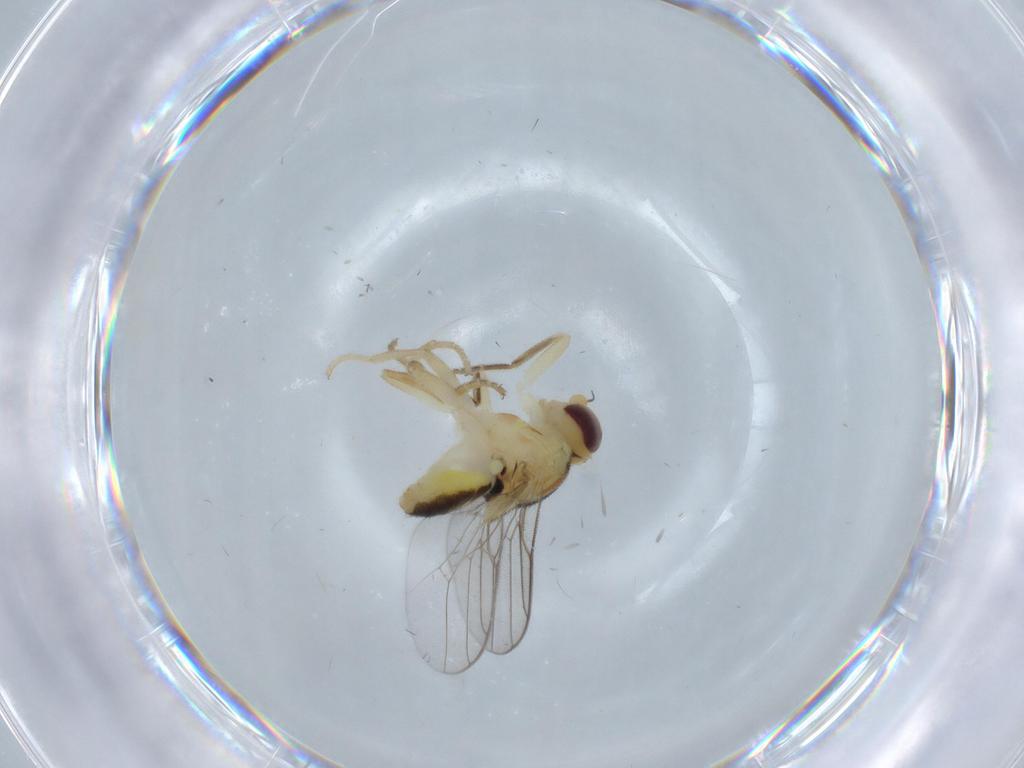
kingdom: Animalia
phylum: Arthropoda
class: Insecta
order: Diptera
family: Chloropidae
